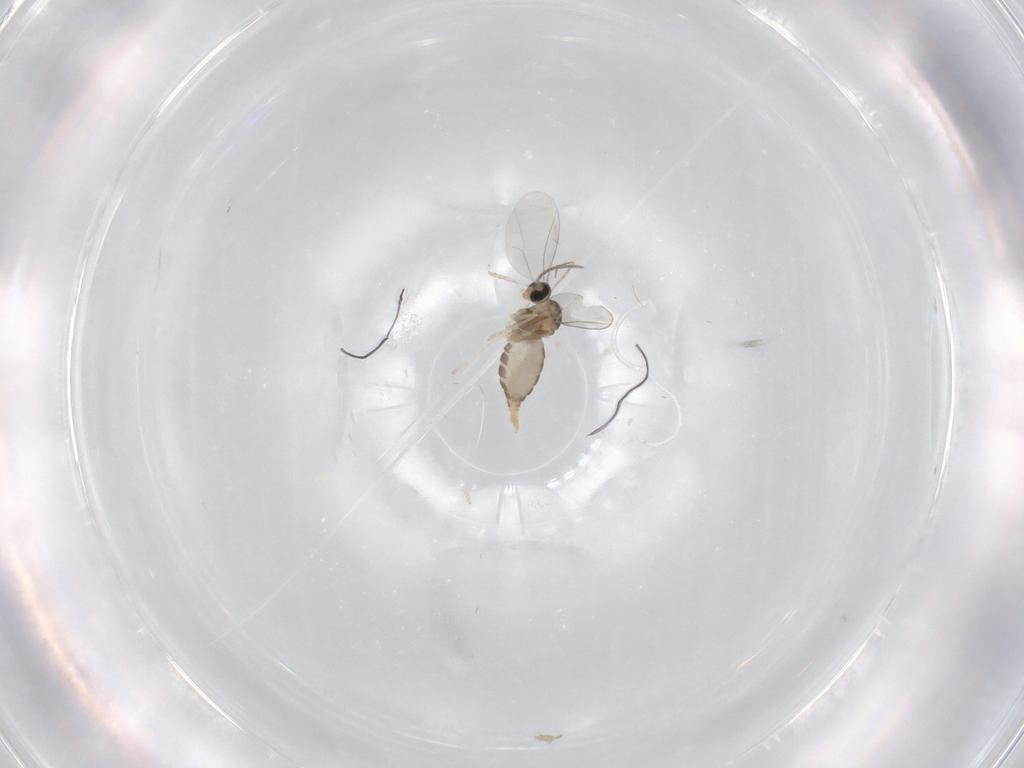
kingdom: Animalia
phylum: Arthropoda
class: Insecta
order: Diptera
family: Cecidomyiidae
